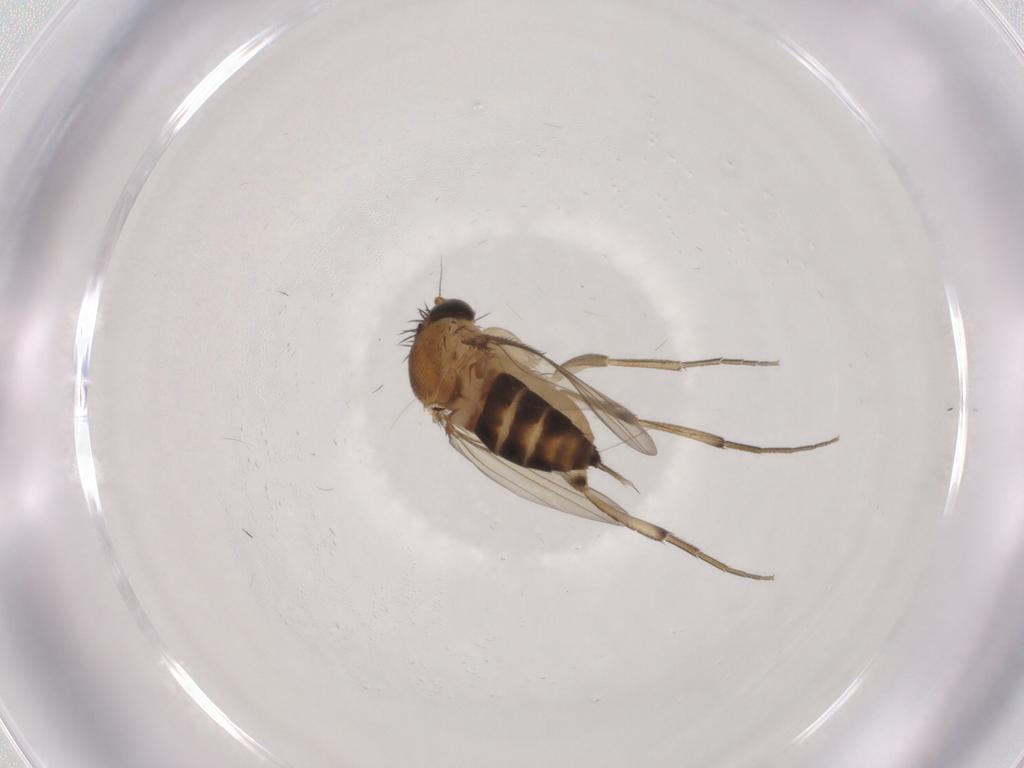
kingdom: Animalia
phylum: Arthropoda
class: Insecta
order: Diptera
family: Phoridae
